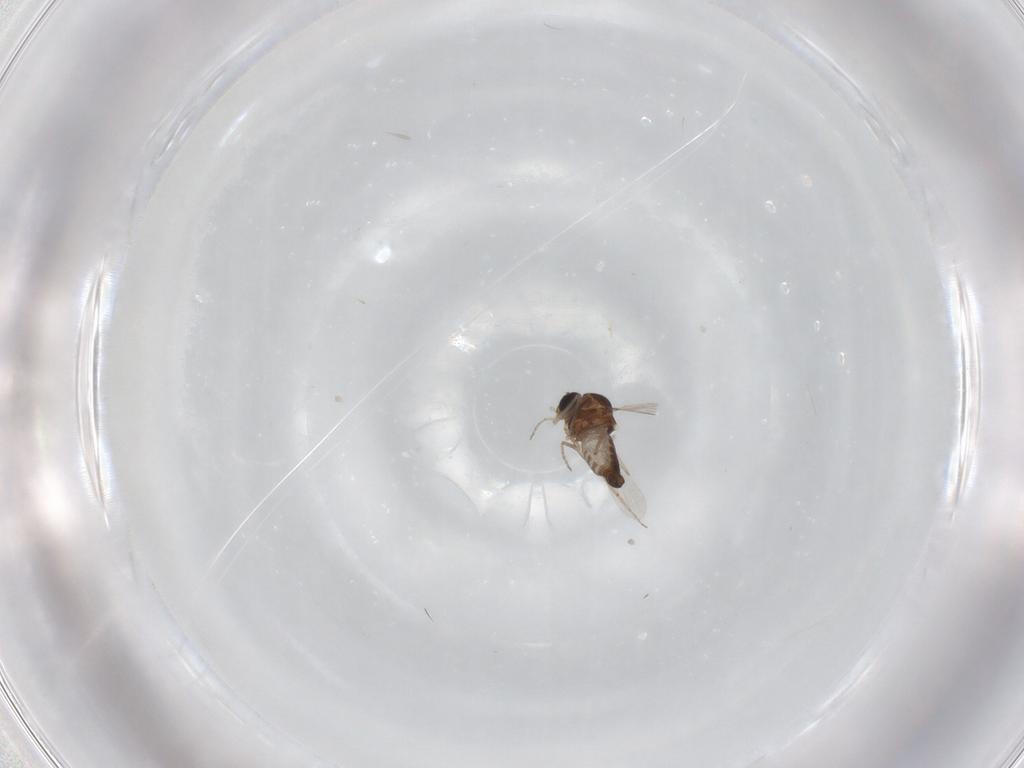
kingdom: Animalia
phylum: Arthropoda
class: Insecta
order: Diptera
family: Ceratopogonidae
